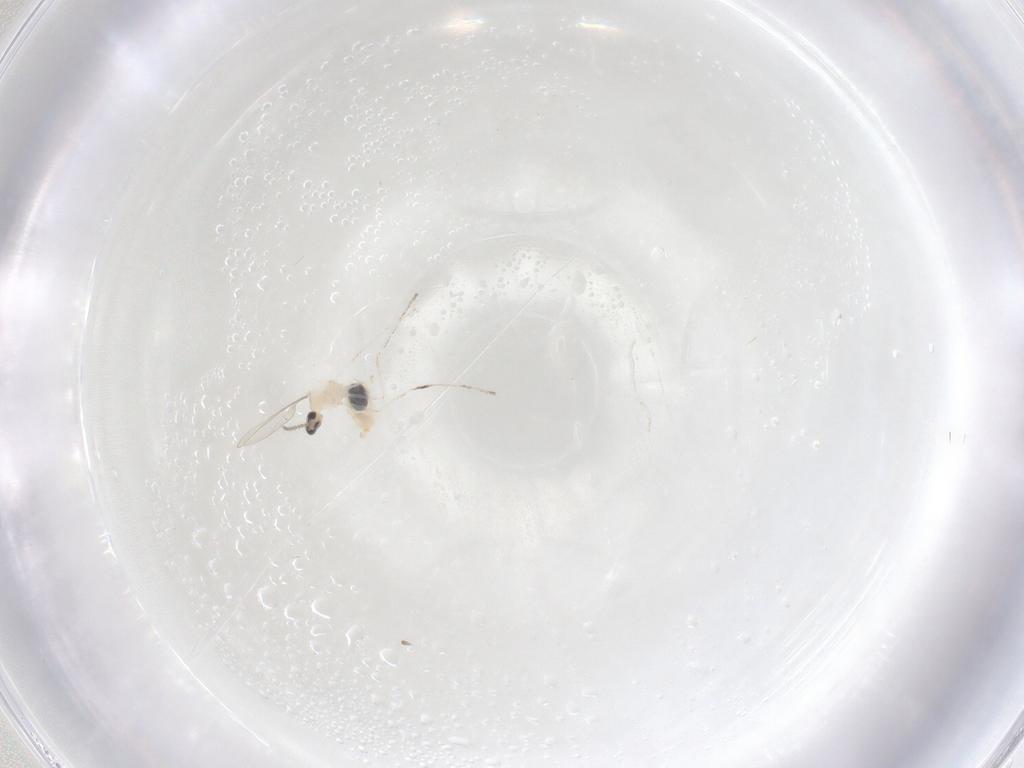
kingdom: Animalia
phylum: Arthropoda
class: Insecta
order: Diptera
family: Cecidomyiidae
